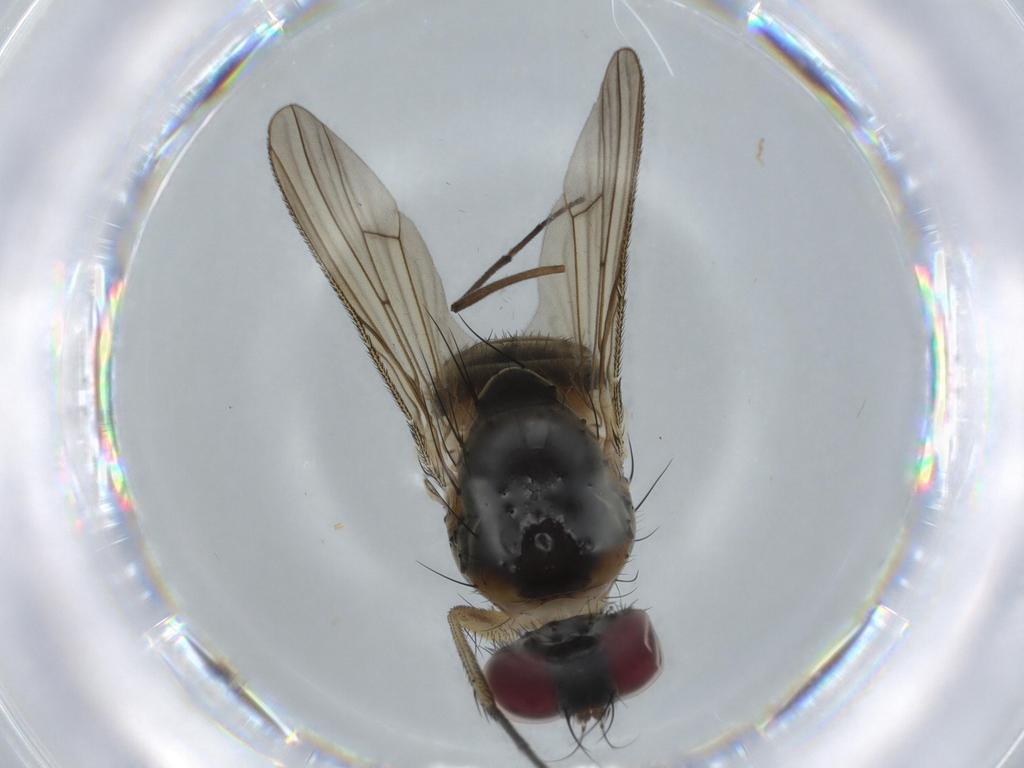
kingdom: Animalia
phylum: Arthropoda
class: Insecta
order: Diptera
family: Muscidae
